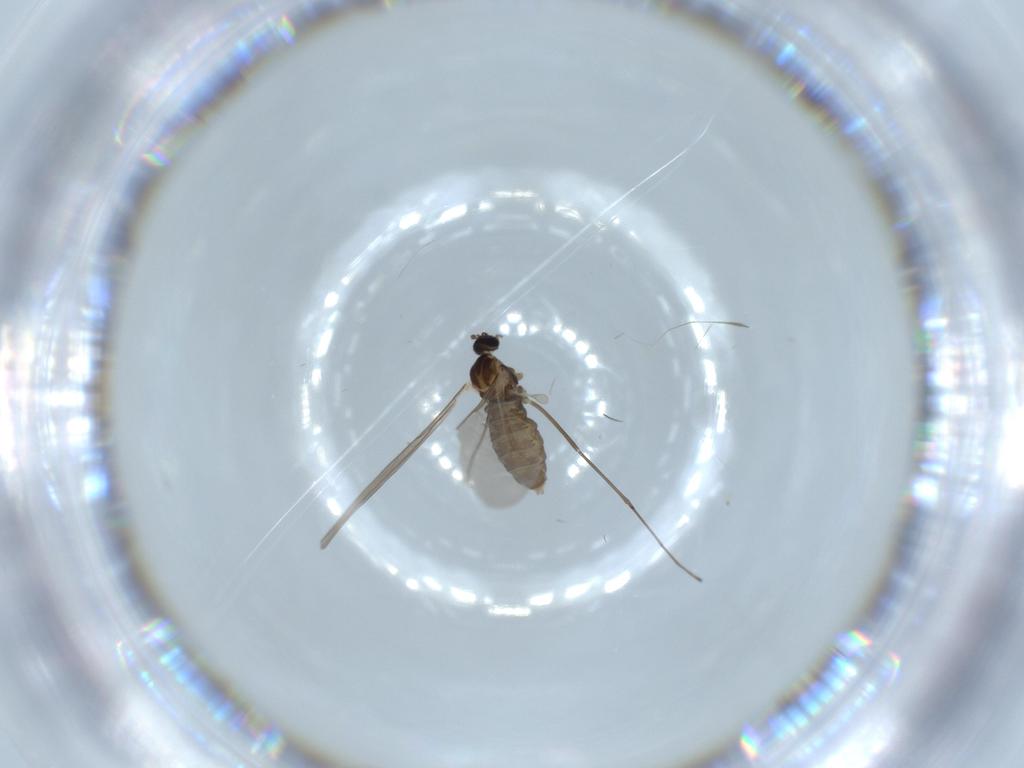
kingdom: Animalia
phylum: Arthropoda
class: Insecta
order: Diptera
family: Cecidomyiidae
